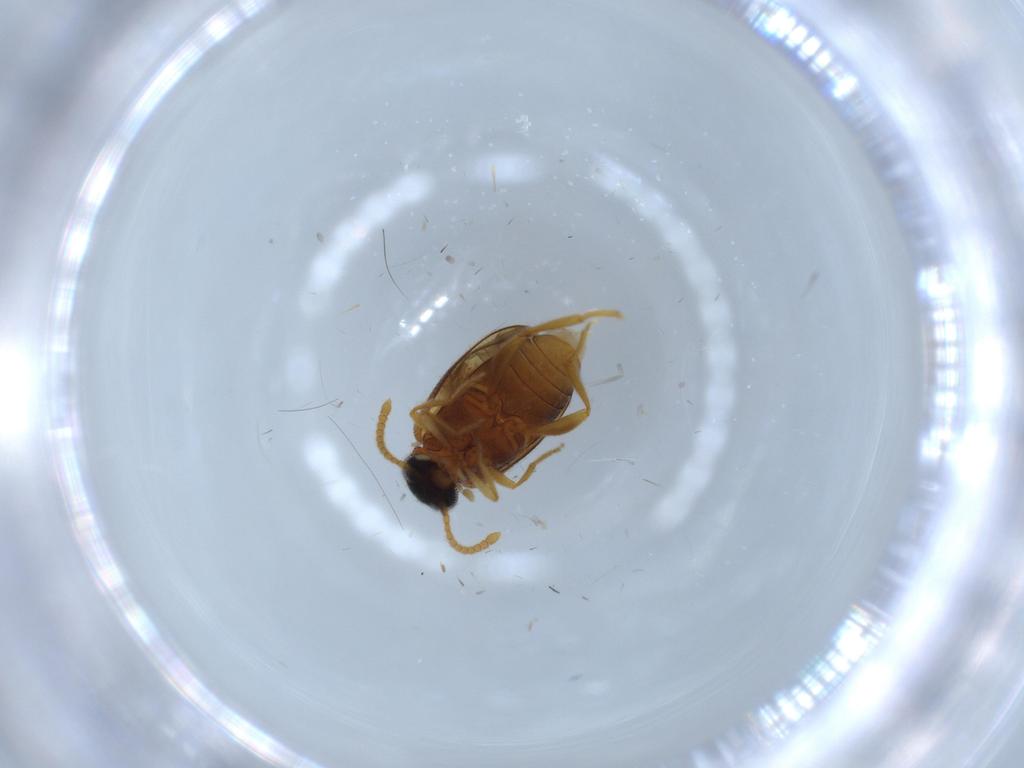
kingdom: Animalia
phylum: Arthropoda
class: Insecta
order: Coleoptera
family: Aderidae
